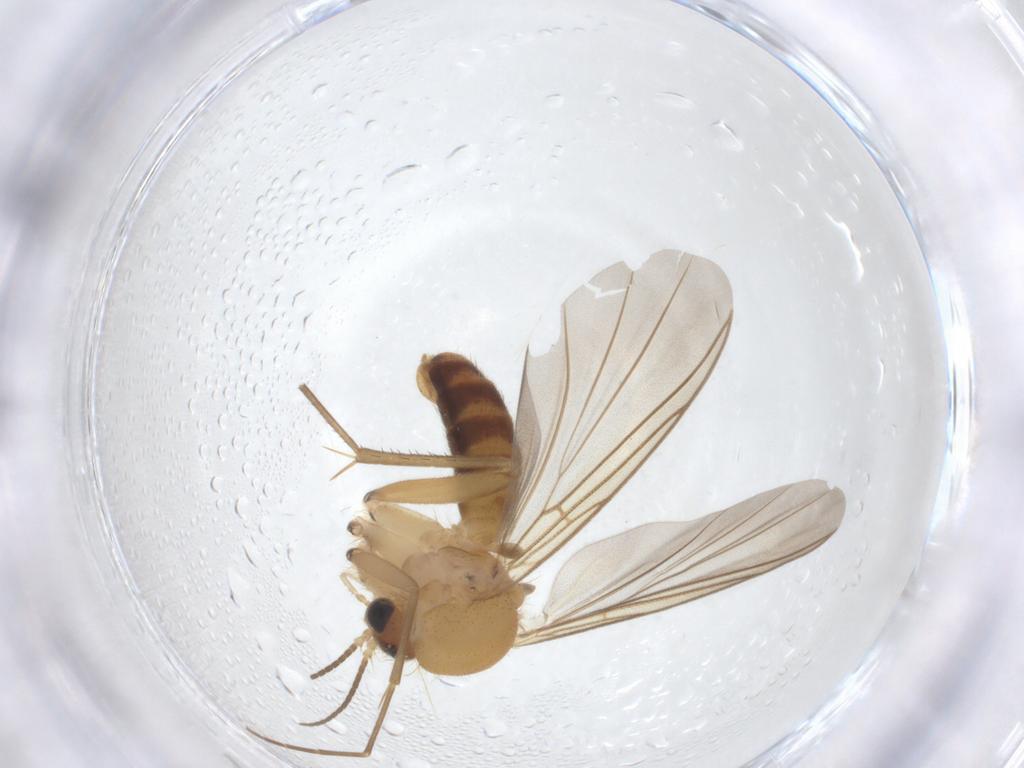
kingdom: Animalia
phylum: Arthropoda
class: Insecta
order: Diptera
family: Mycetophilidae
